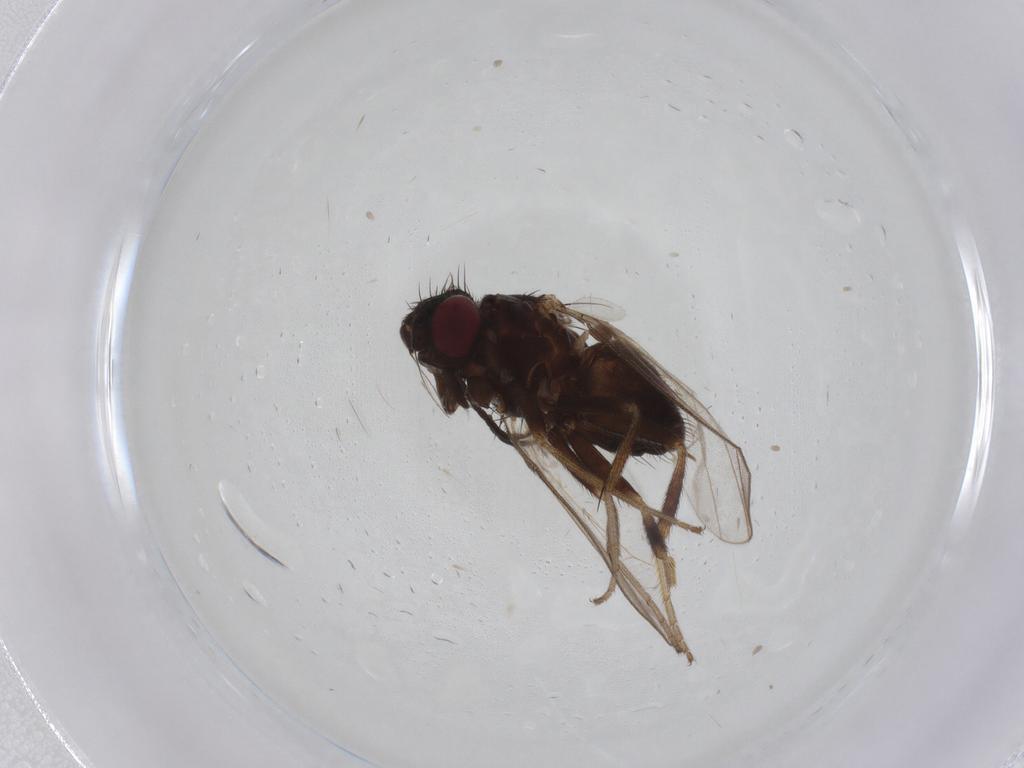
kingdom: Animalia
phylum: Arthropoda
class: Insecta
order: Diptera
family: Milichiidae
